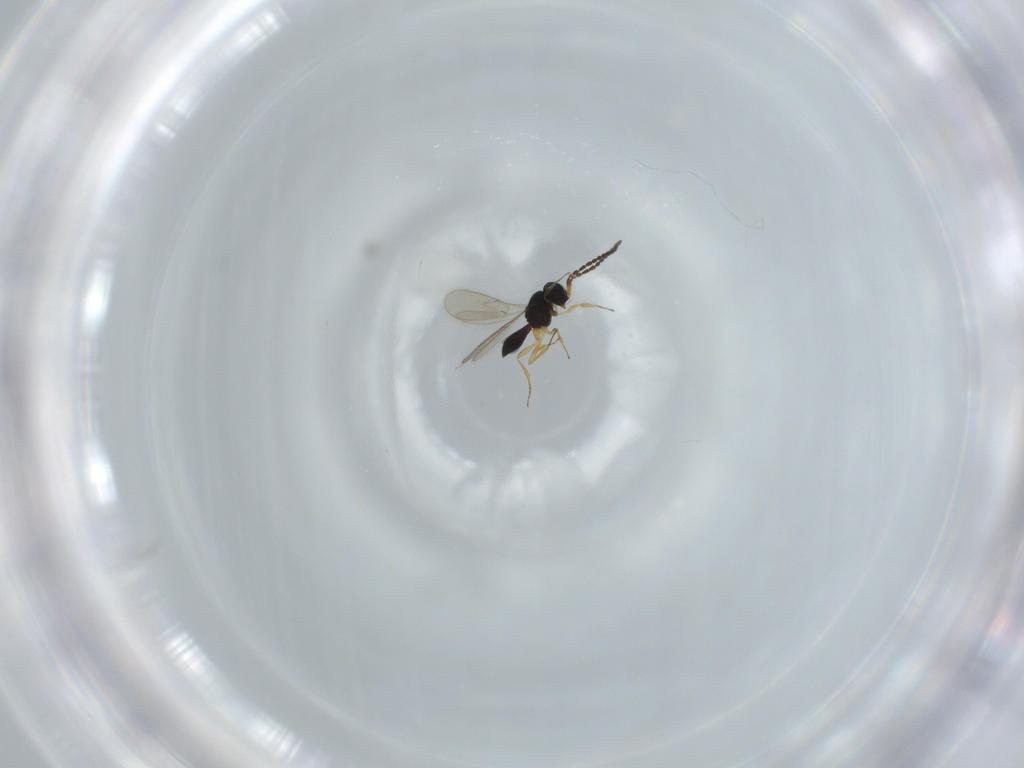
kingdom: Animalia
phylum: Arthropoda
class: Insecta
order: Hymenoptera
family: Scelionidae
